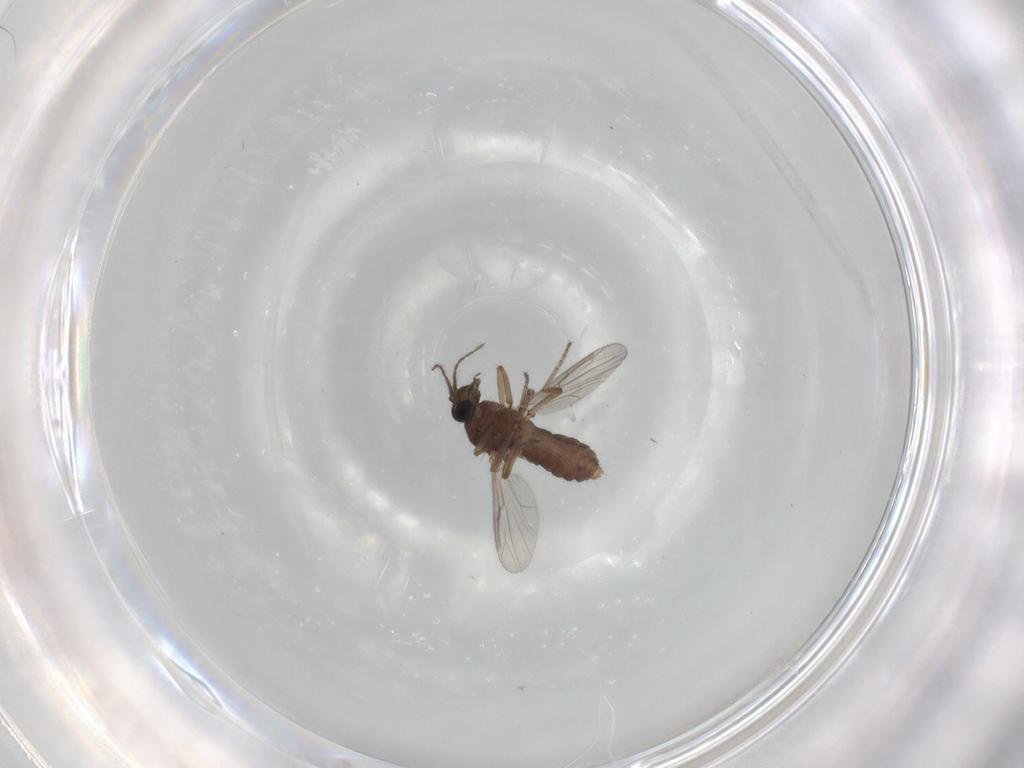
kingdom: Animalia
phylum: Arthropoda
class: Insecta
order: Diptera
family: Ceratopogonidae
